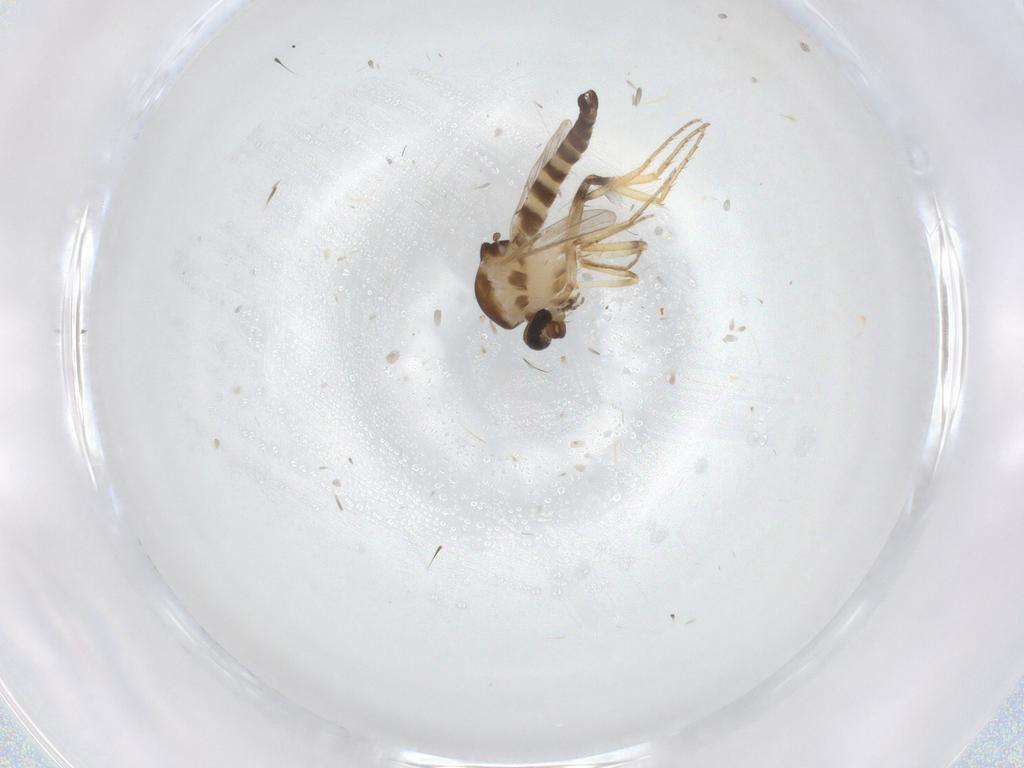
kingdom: Animalia
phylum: Arthropoda
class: Insecta
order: Diptera
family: Ceratopogonidae
